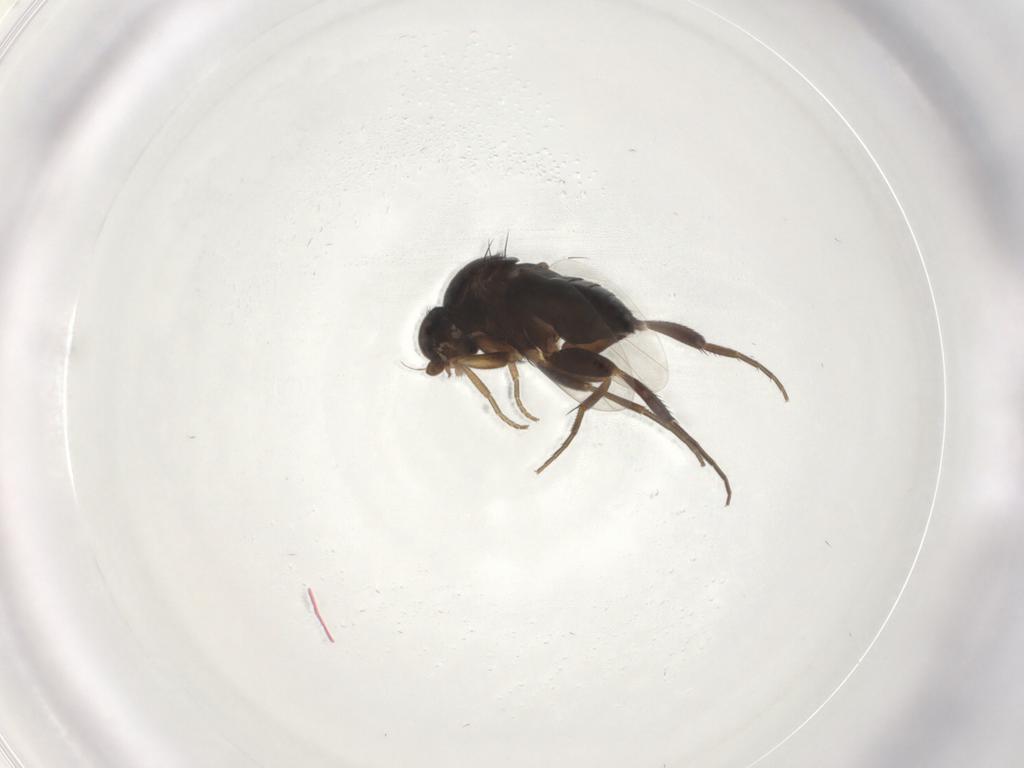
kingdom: Animalia
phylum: Arthropoda
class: Insecta
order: Diptera
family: Phoridae
